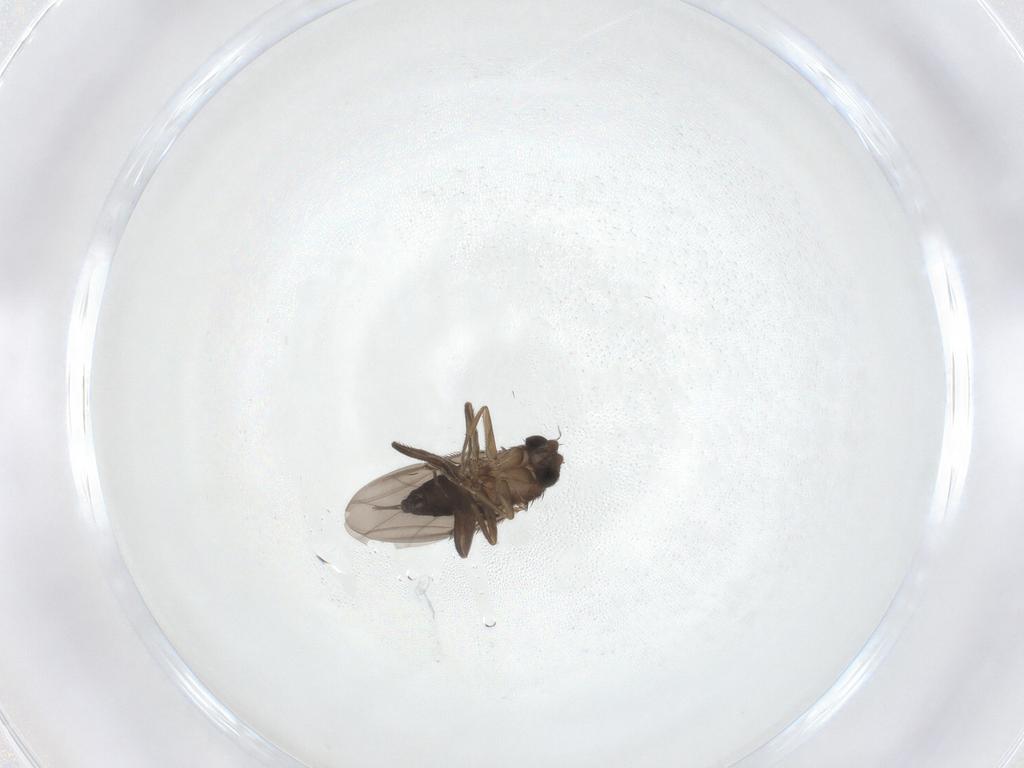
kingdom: Animalia
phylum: Arthropoda
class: Insecta
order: Diptera
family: Phoridae
